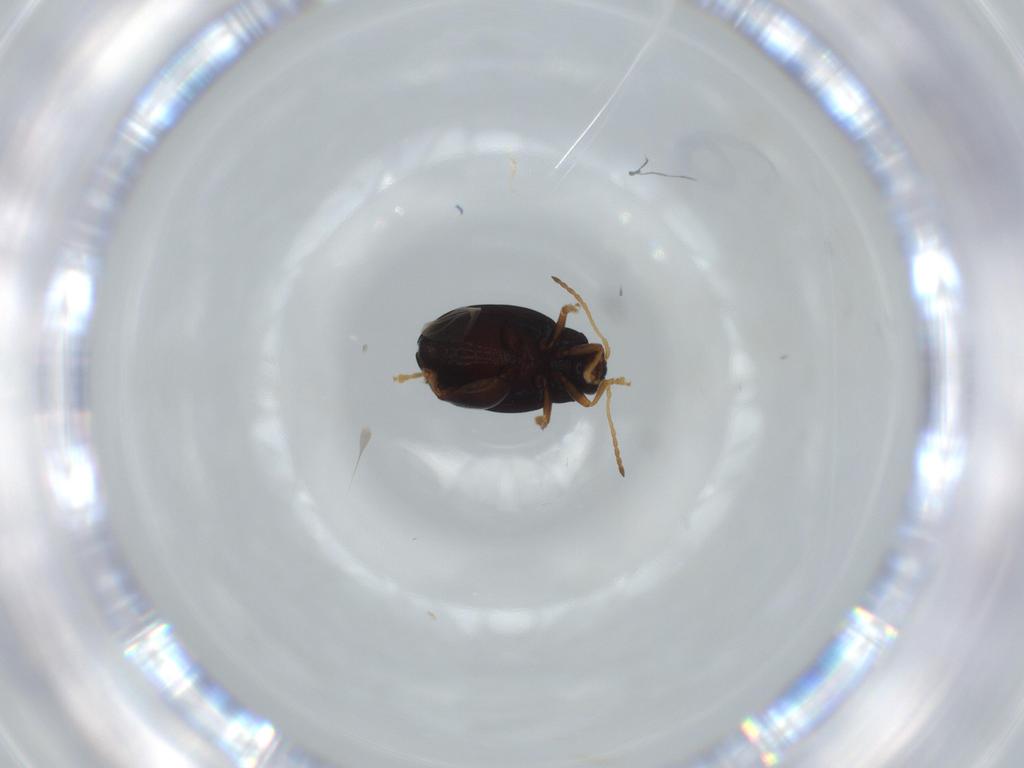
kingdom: Animalia
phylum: Arthropoda
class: Insecta
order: Coleoptera
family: Chrysomelidae
